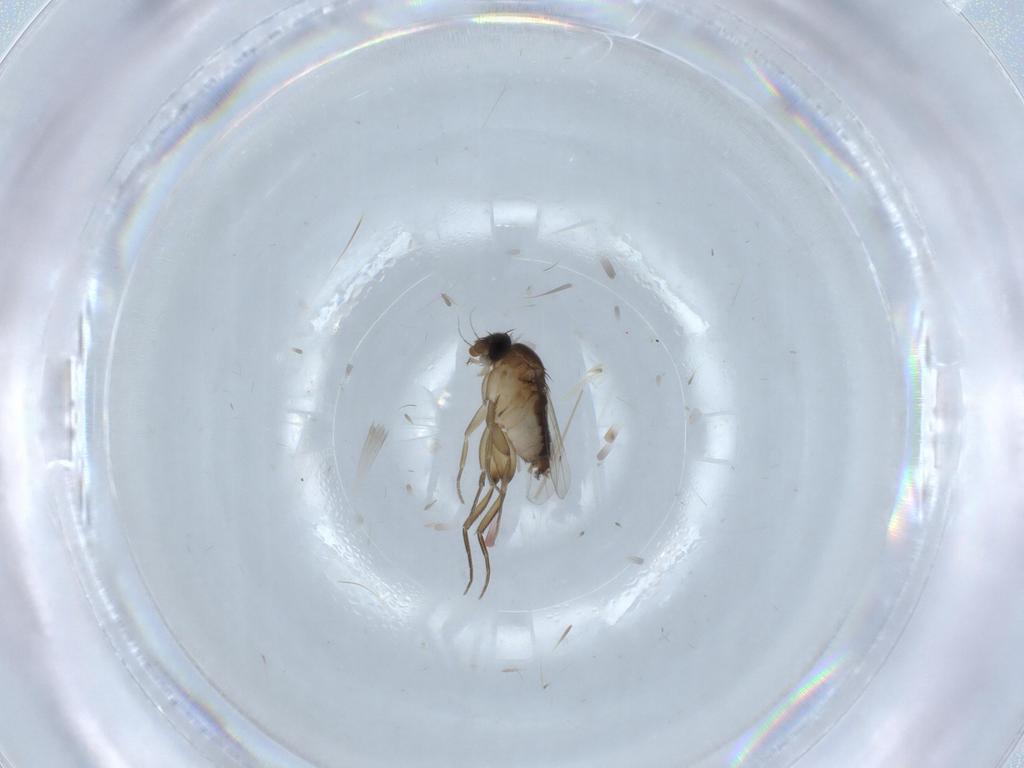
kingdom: Animalia
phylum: Arthropoda
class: Insecta
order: Diptera
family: Phoridae
